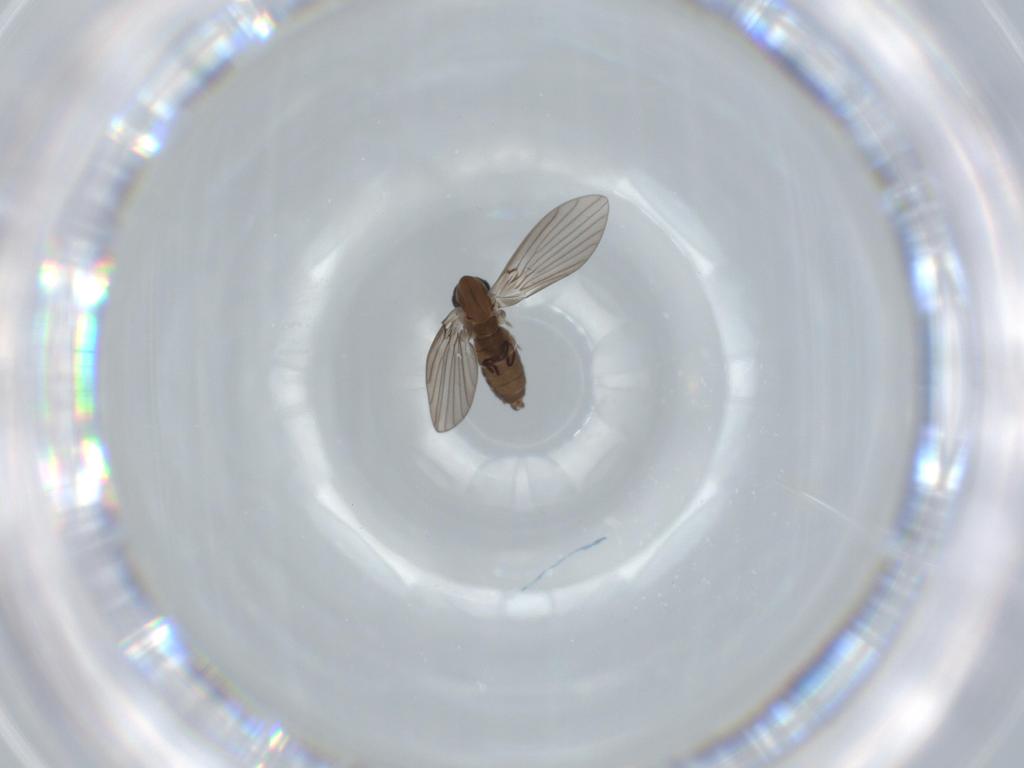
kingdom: Animalia
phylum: Arthropoda
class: Insecta
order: Diptera
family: Psychodidae
